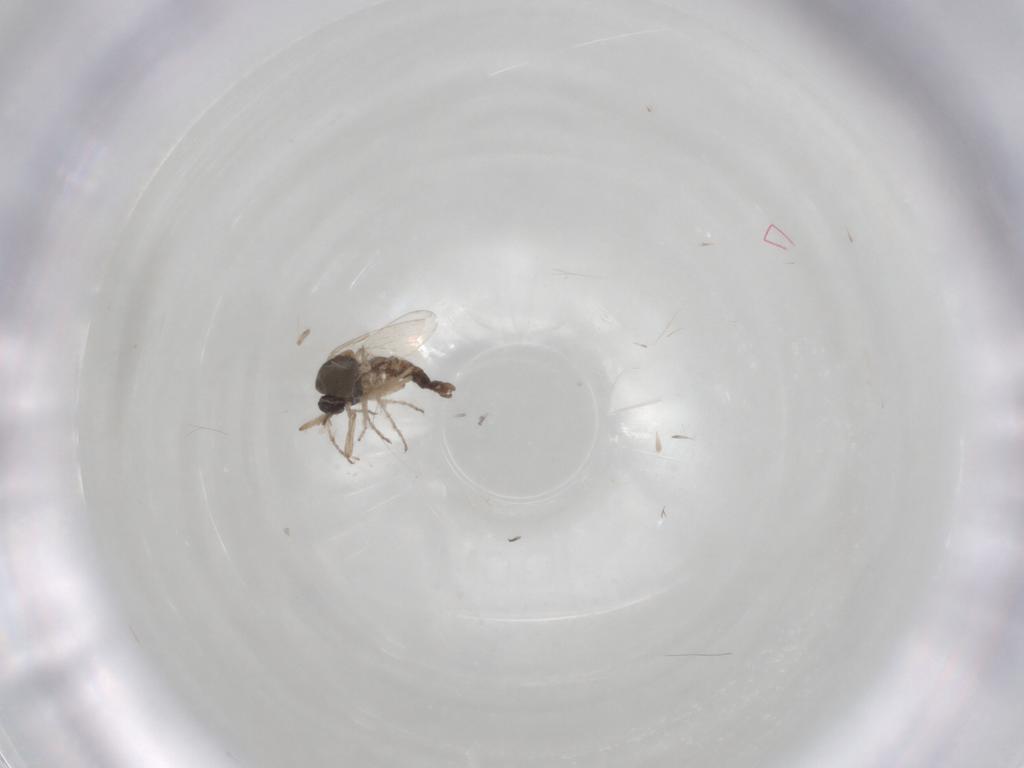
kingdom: Animalia
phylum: Arthropoda
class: Insecta
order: Diptera
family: Ceratopogonidae
